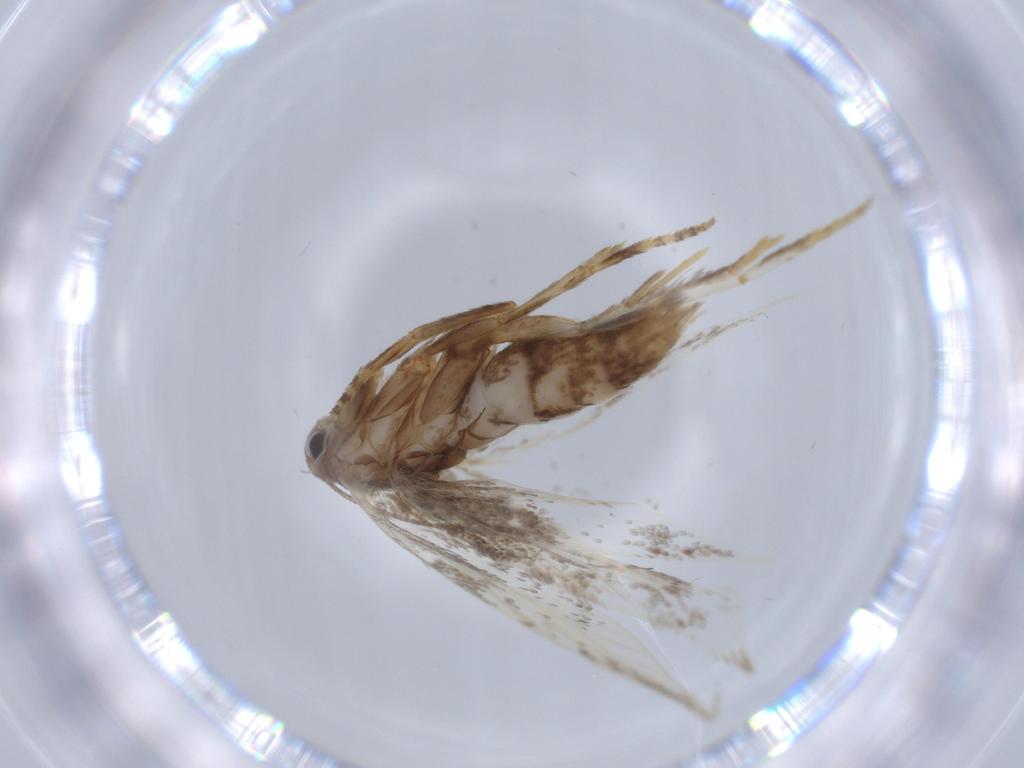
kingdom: Animalia
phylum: Arthropoda
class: Insecta
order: Lepidoptera
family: Elachistidae
